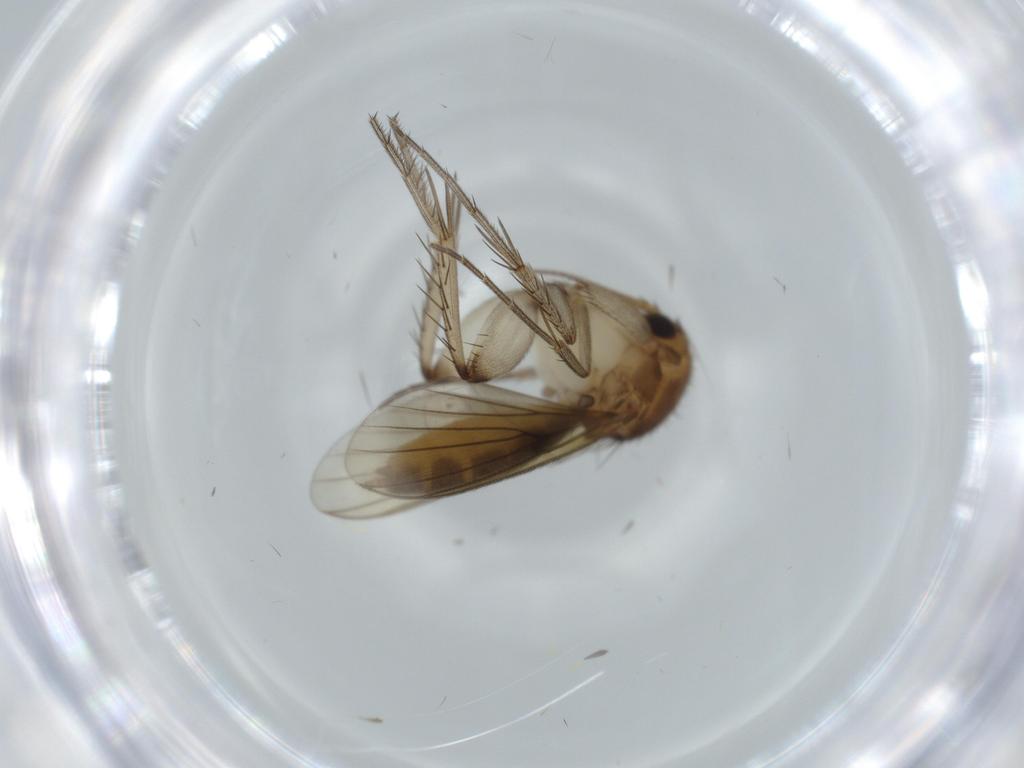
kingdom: Animalia
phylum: Arthropoda
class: Insecta
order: Diptera
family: Mycetophilidae
